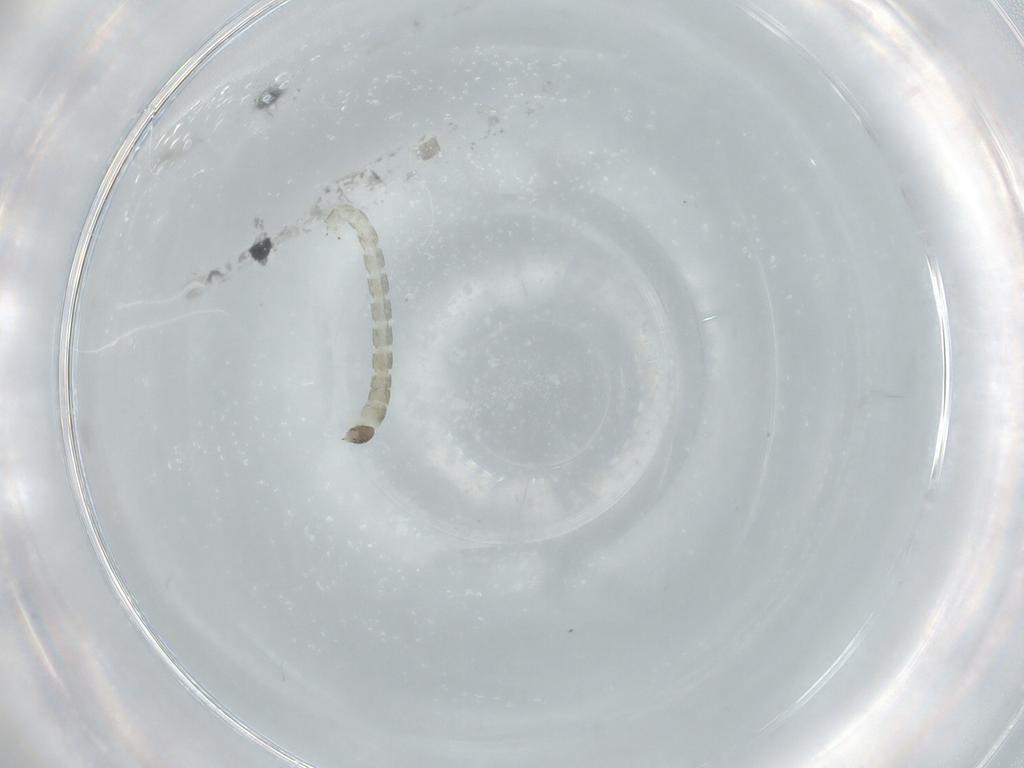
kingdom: Animalia
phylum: Arthropoda
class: Insecta
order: Diptera
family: Chironomidae
